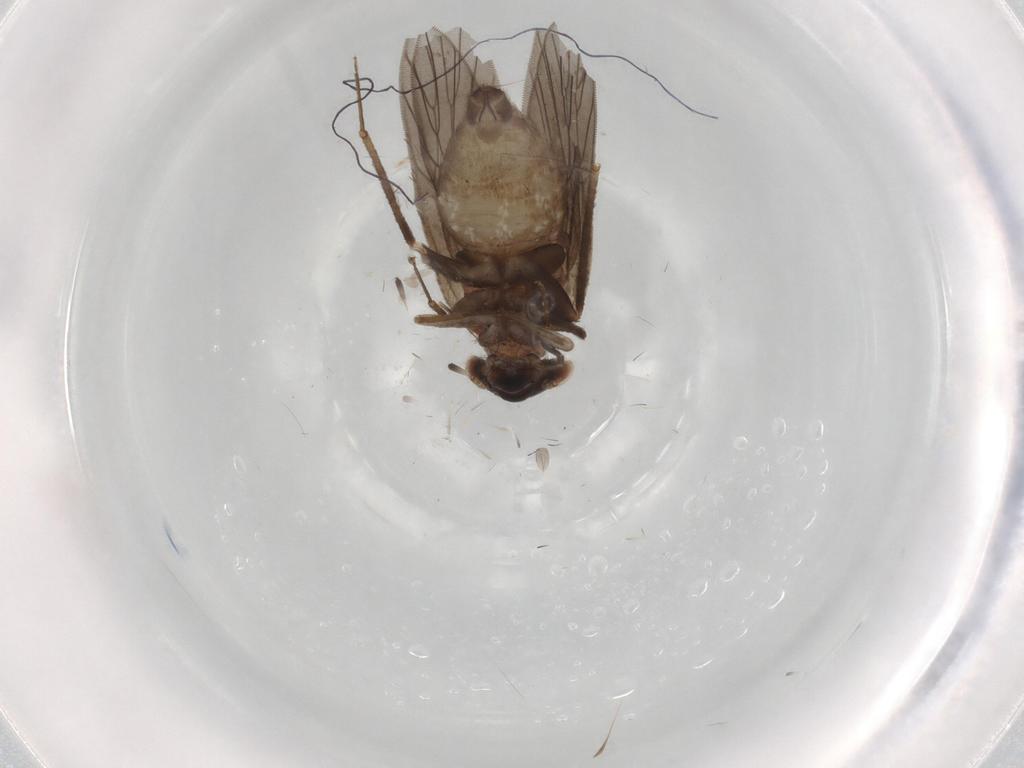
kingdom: Animalia
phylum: Arthropoda
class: Insecta
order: Psocodea
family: Lepidopsocidae
